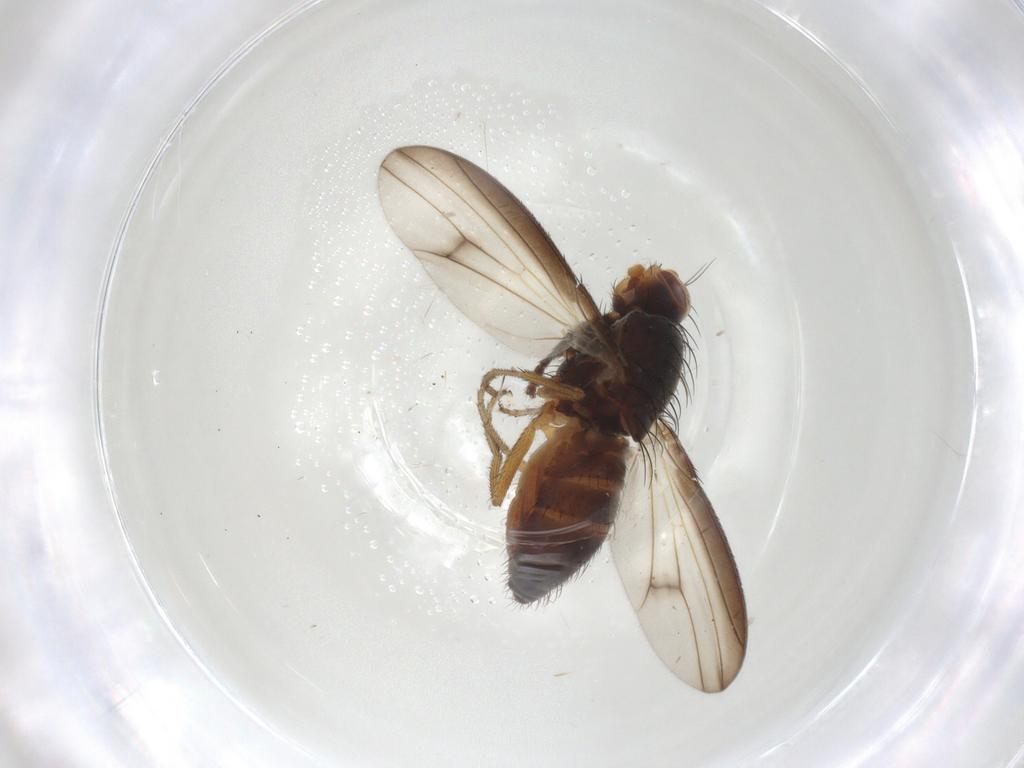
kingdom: Animalia
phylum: Arthropoda
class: Insecta
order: Diptera
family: Heleomyzidae
